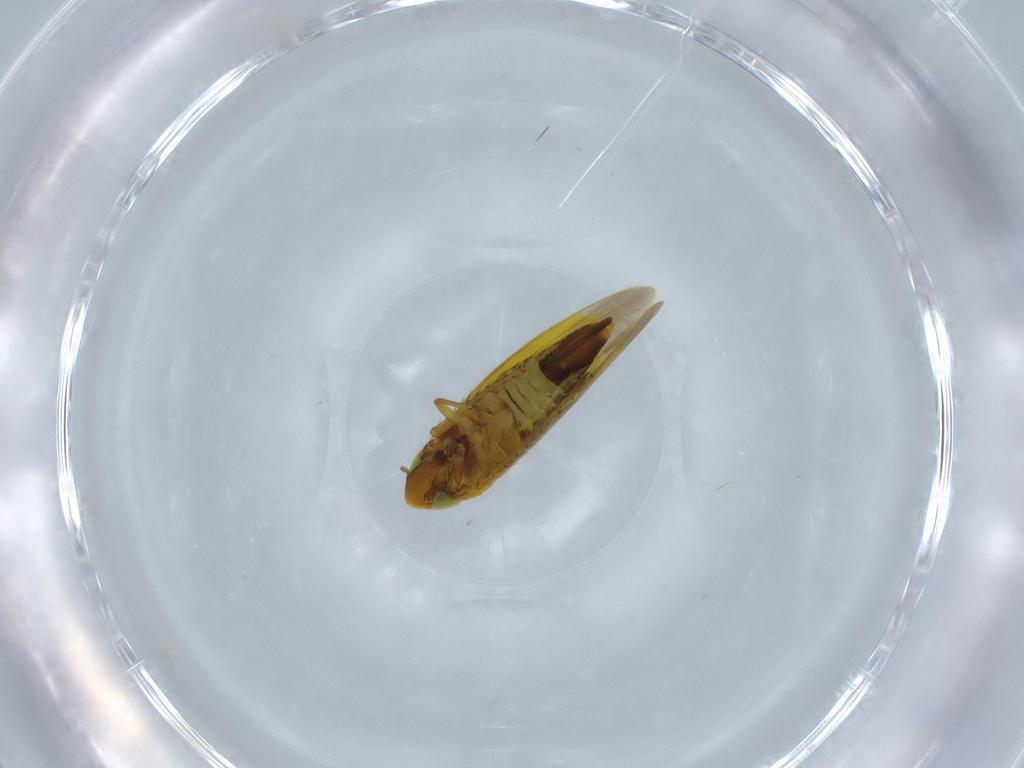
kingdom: Animalia
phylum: Arthropoda
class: Insecta
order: Hemiptera
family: Cicadellidae
